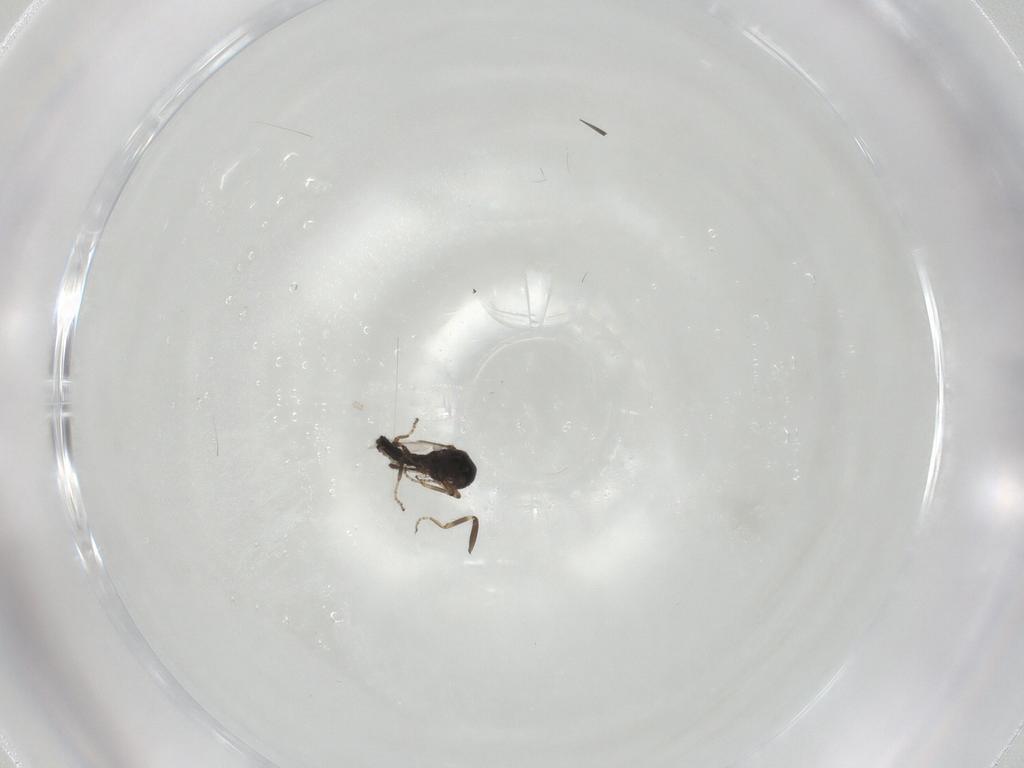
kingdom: Animalia
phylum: Arthropoda
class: Insecta
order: Diptera
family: Ceratopogonidae
